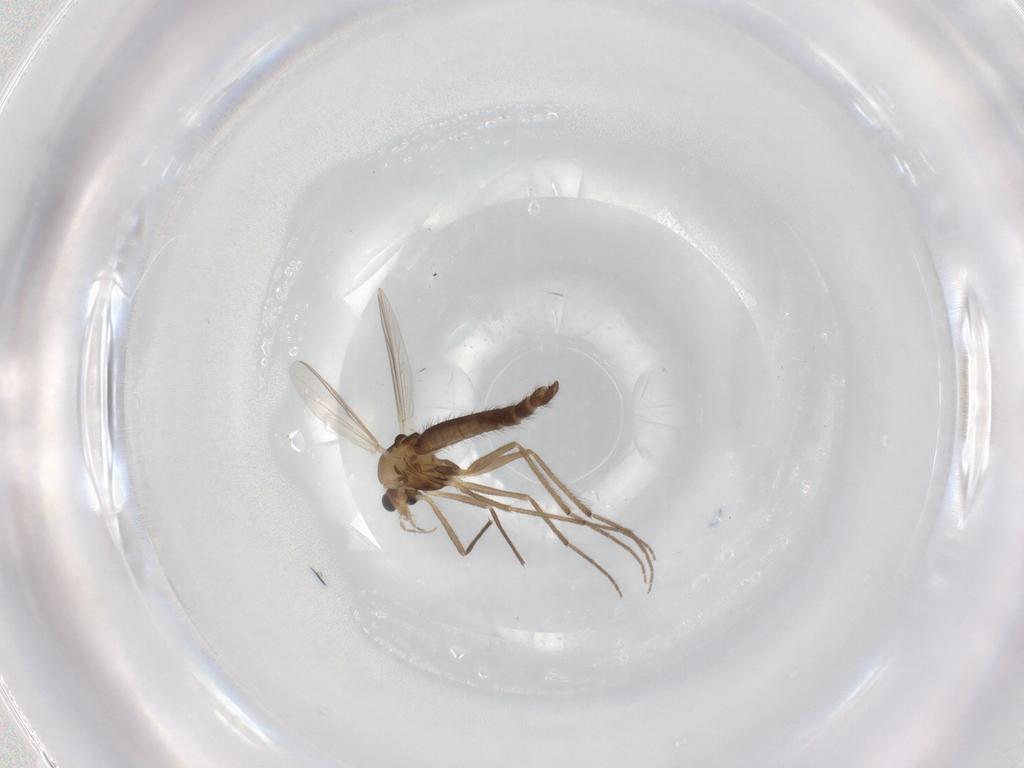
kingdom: Animalia
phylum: Arthropoda
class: Insecta
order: Diptera
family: Chironomidae
